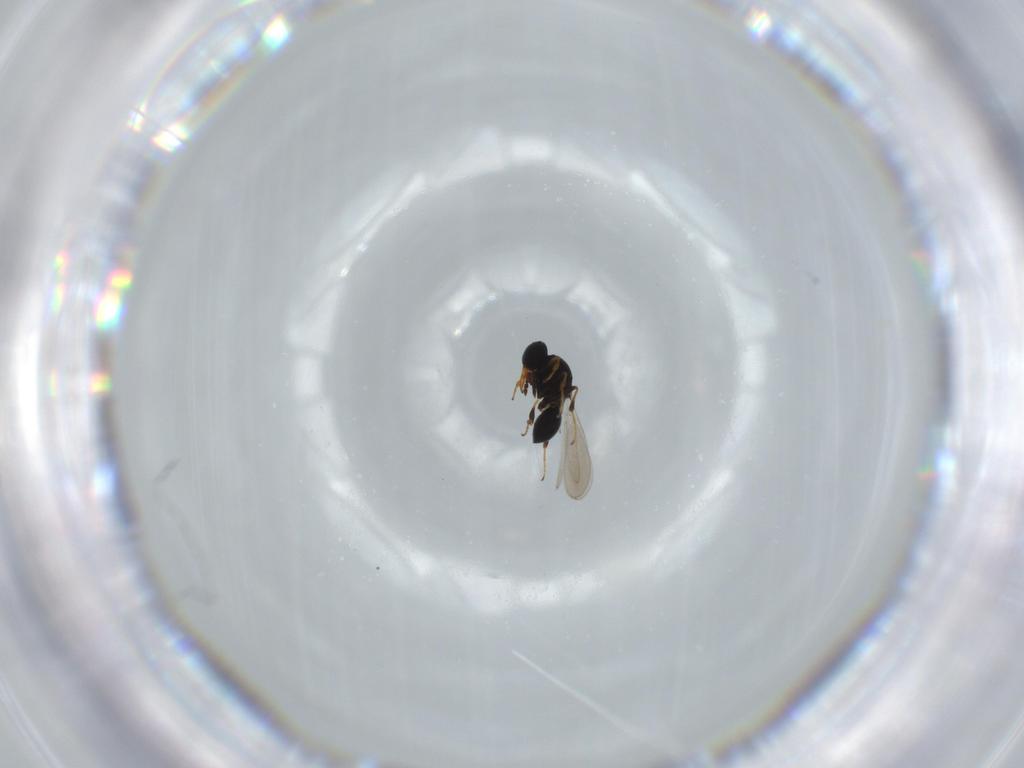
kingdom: Animalia
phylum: Arthropoda
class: Insecta
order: Hymenoptera
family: Platygastridae
